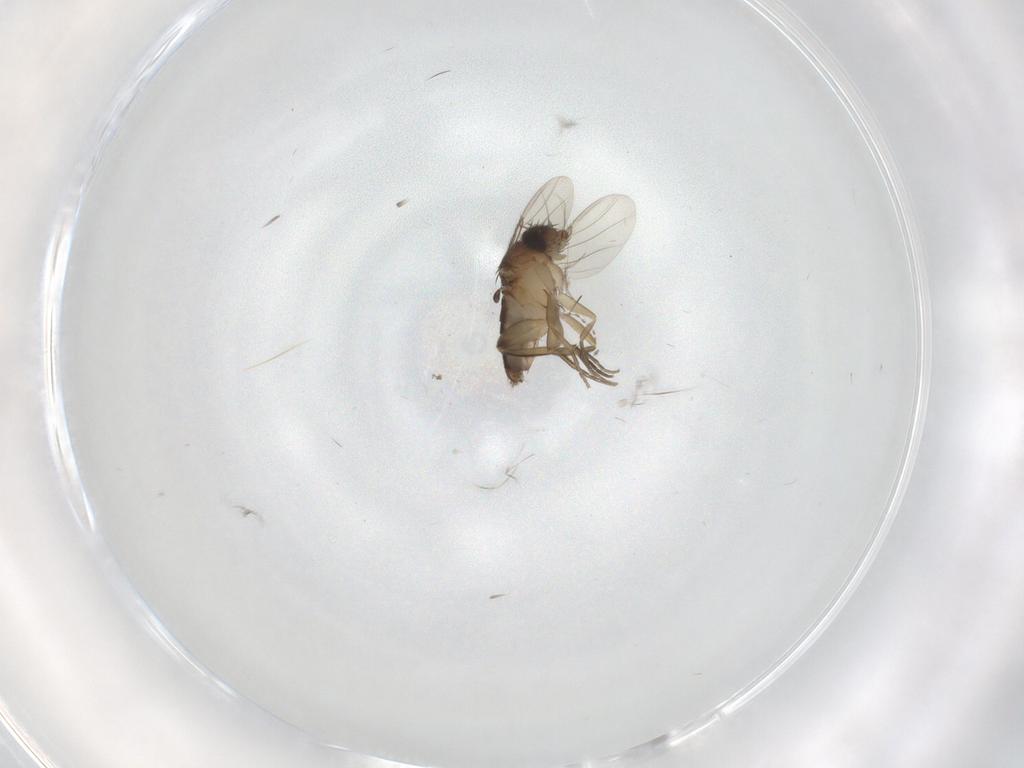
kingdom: Animalia
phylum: Arthropoda
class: Insecta
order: Diptera
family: Phoridae
